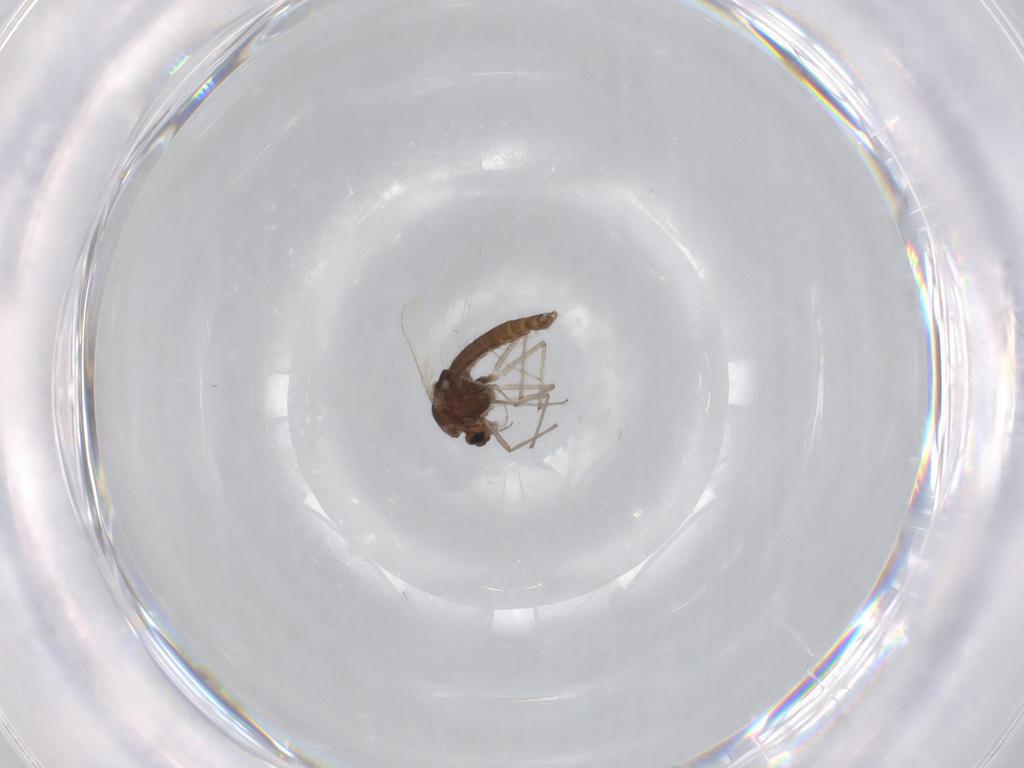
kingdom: Animalia
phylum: Arthropoda
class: Insecta
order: Diptera
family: Chironomidae
